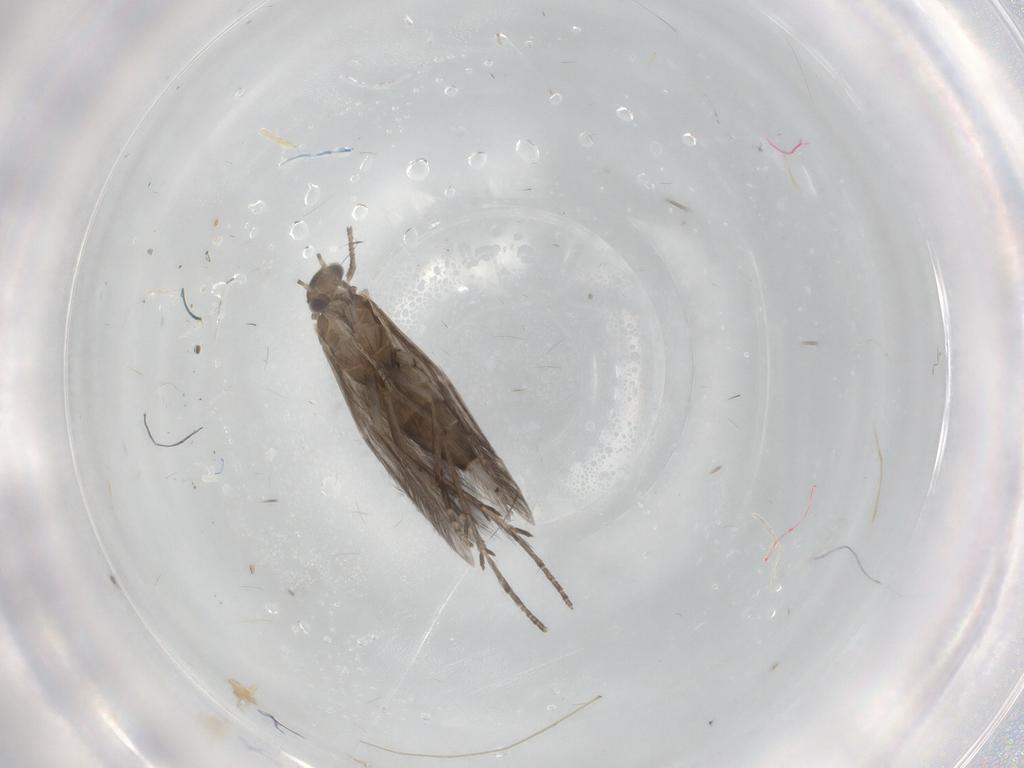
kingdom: Animalia
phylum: Arthropoda
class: Insecta
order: Trichoptera
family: Hydroptilidae
